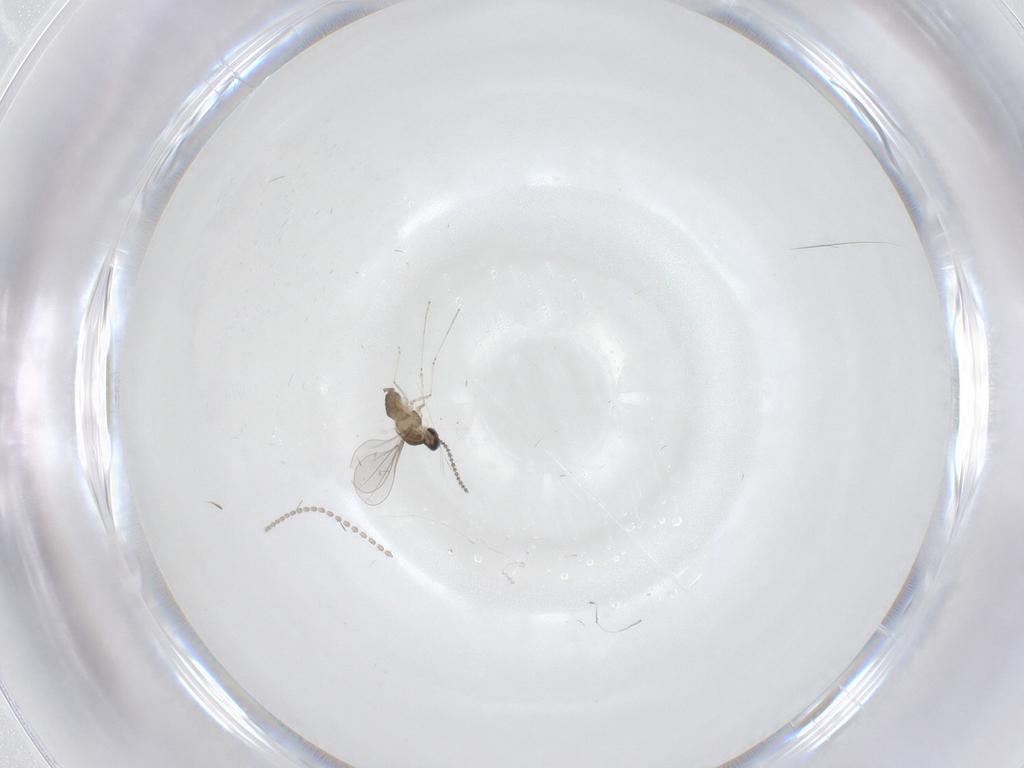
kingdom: Animalia
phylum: Arthropoda
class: Insecta
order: Diptera
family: Cecidomyiidae
